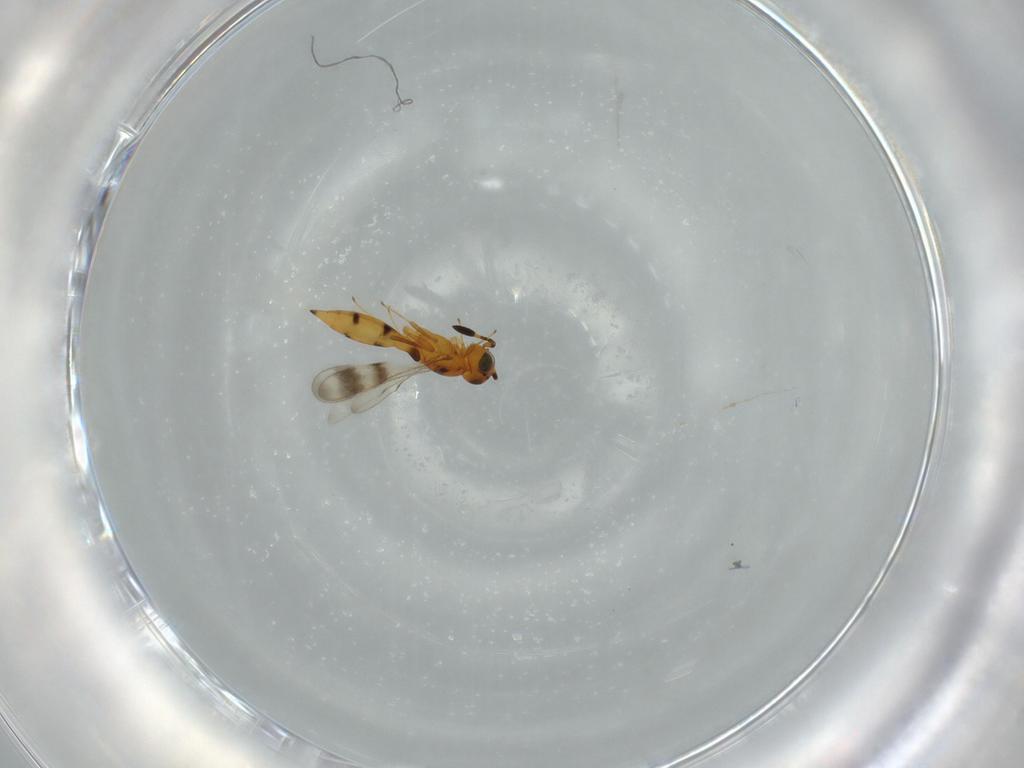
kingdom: Animalia
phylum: Arthropoda
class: Insecta
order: Hymenoptera
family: Scelionidae
